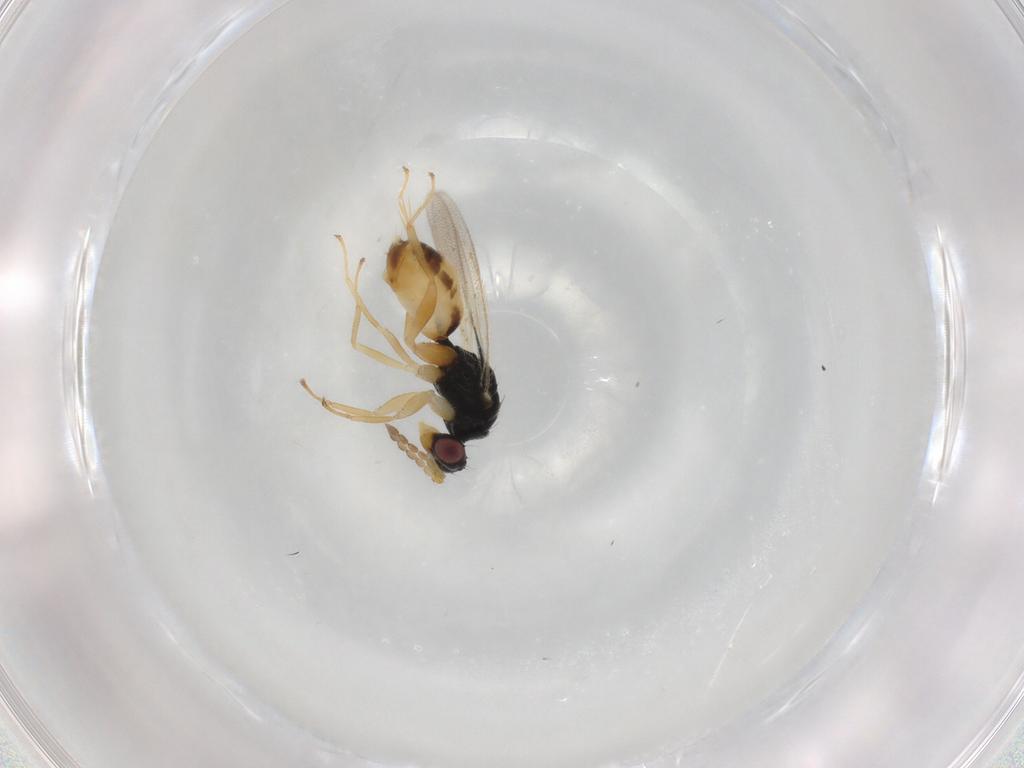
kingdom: Animalia
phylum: Arthropoda
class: Insecta
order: Hymenoptera
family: Eulophidae
